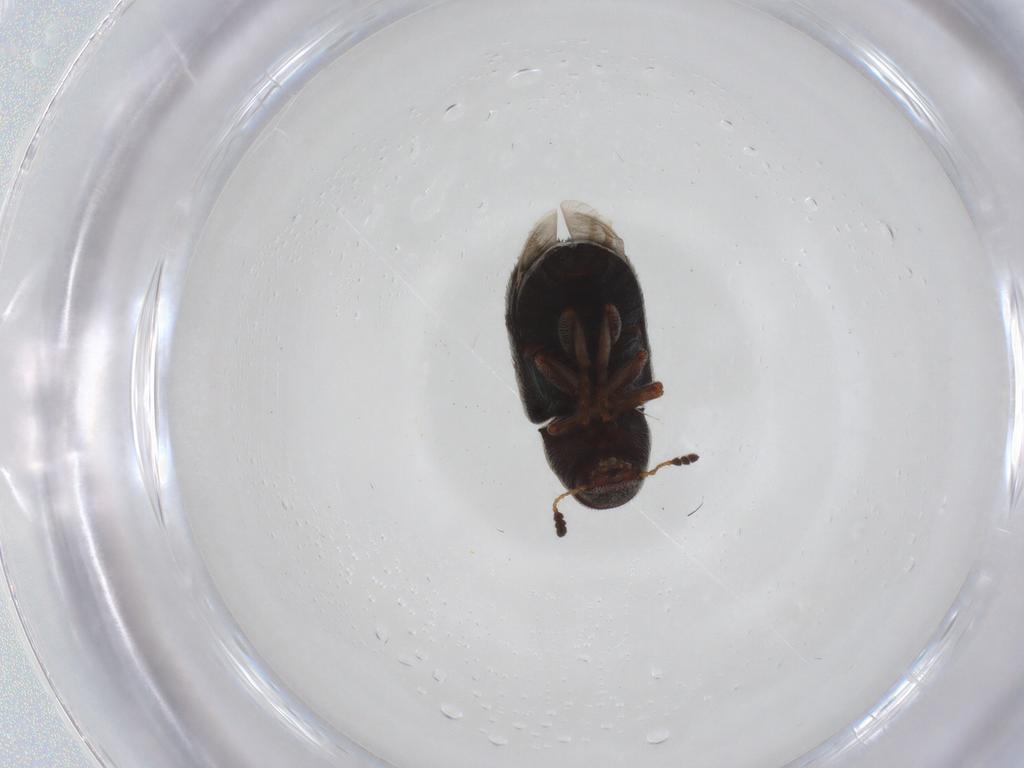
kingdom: Animalia
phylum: Arthropoda
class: Insecta
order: Coleoptera
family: Anthribidae
